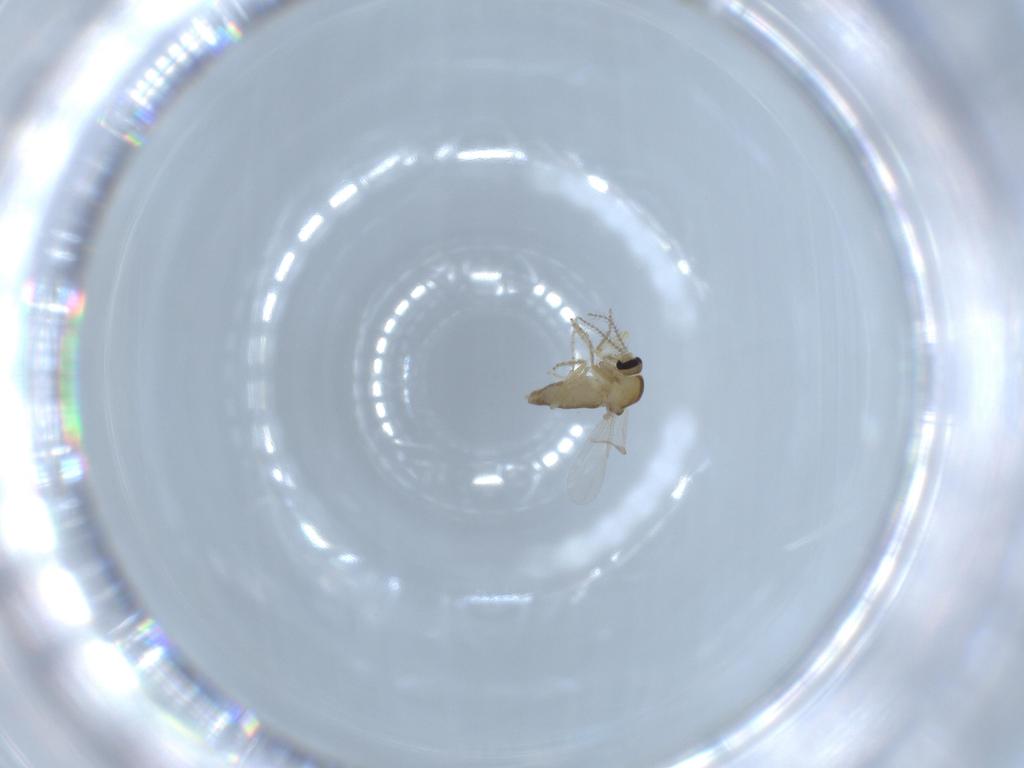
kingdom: Animalia
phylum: Arthropoda
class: Insecta
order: Diptera
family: Ceratopogonidae
